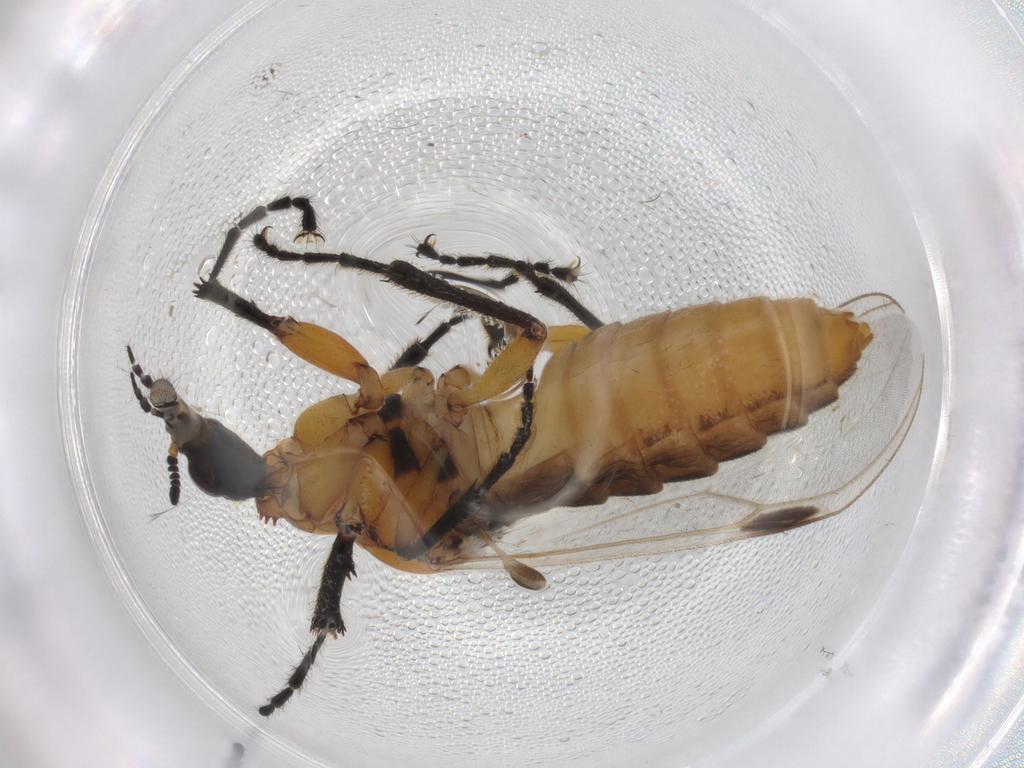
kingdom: Animalia
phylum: Arthropoda
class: Insecta
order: Diptera
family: Bibionidae
